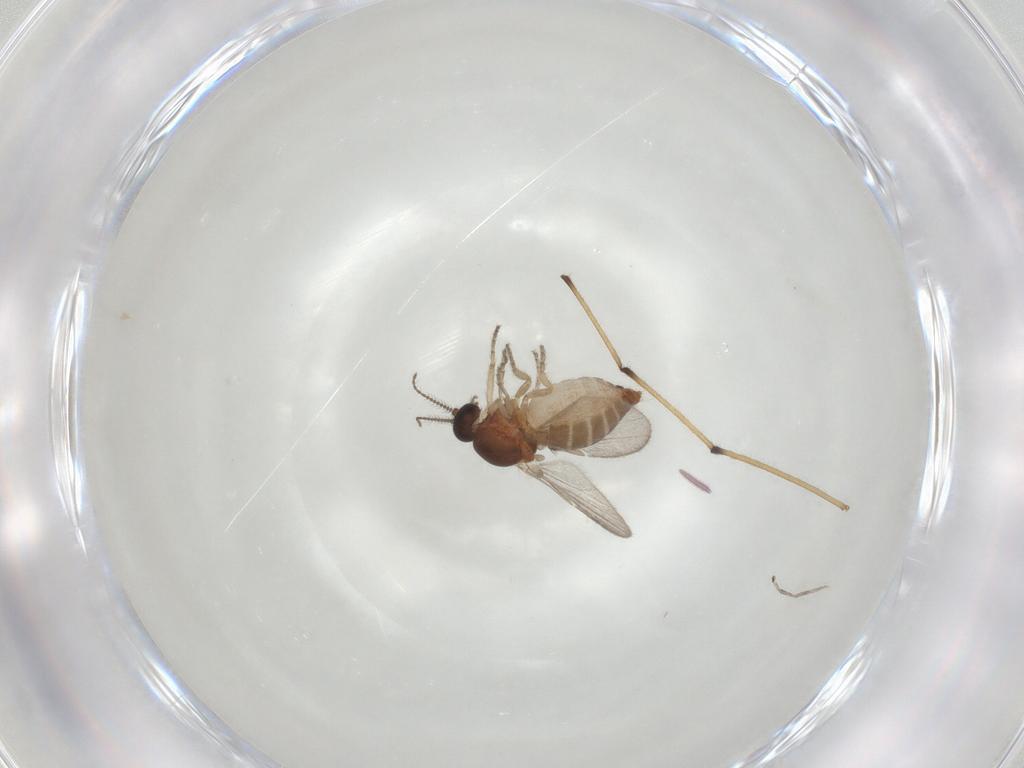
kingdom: Animalia
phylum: Arthropoda
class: Insecta
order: Diptera
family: Ceratopogonidae
